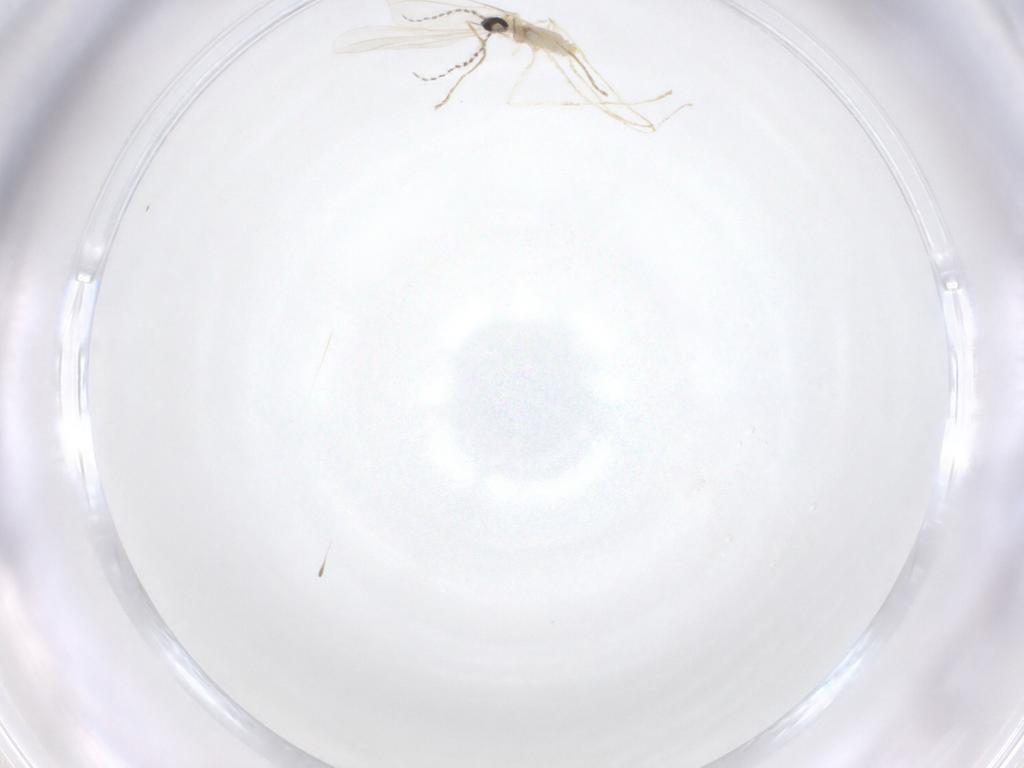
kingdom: Animalia
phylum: Arthropoda
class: Insecta
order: Diptera
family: Cecidomyiidae
